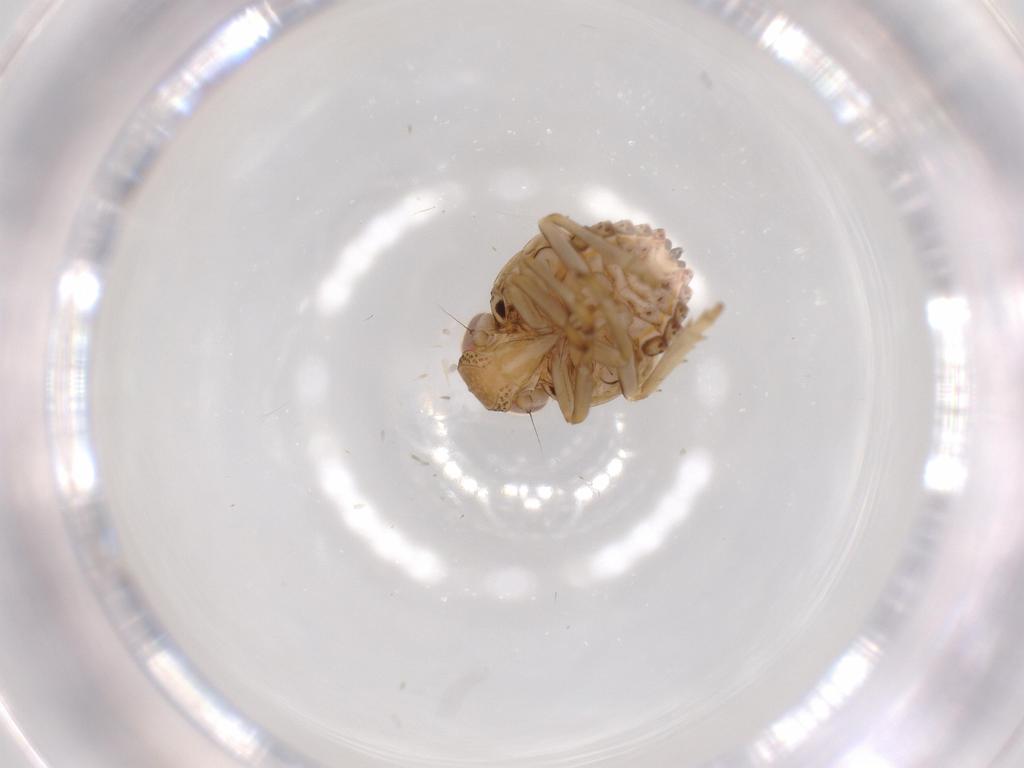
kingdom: Animalia
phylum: Arthropoda
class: Insecta
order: Hemiptera
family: Issidae
